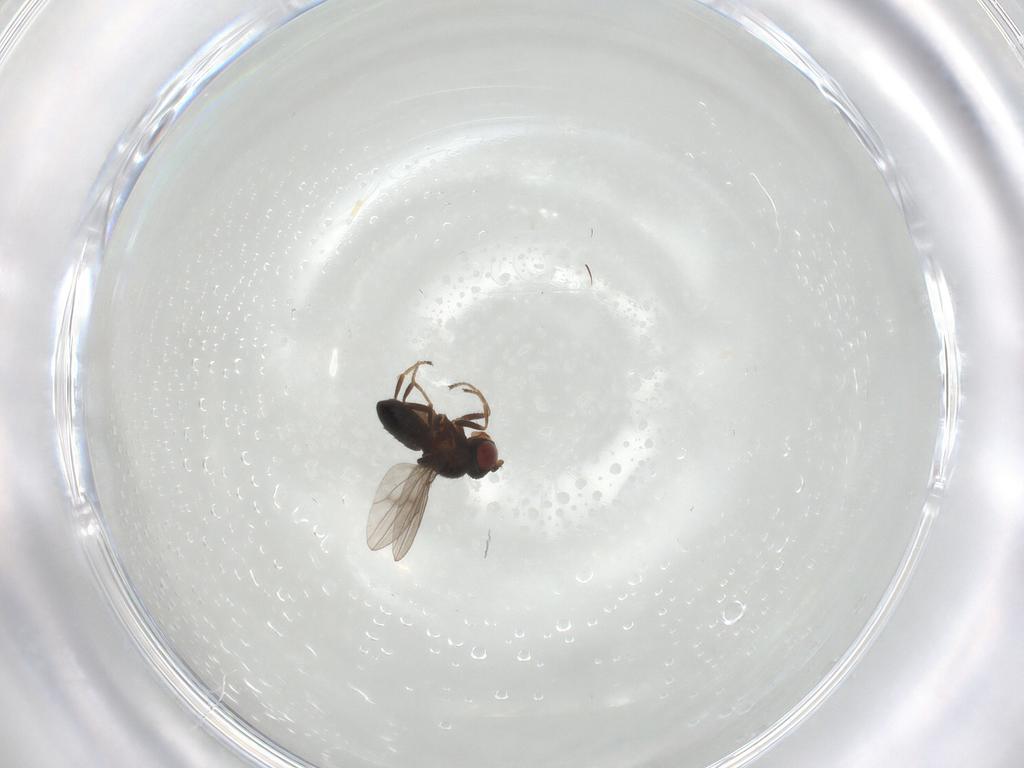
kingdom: Animalia
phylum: Arthropoda
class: Insecta
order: Diptera
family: Ephydridae
